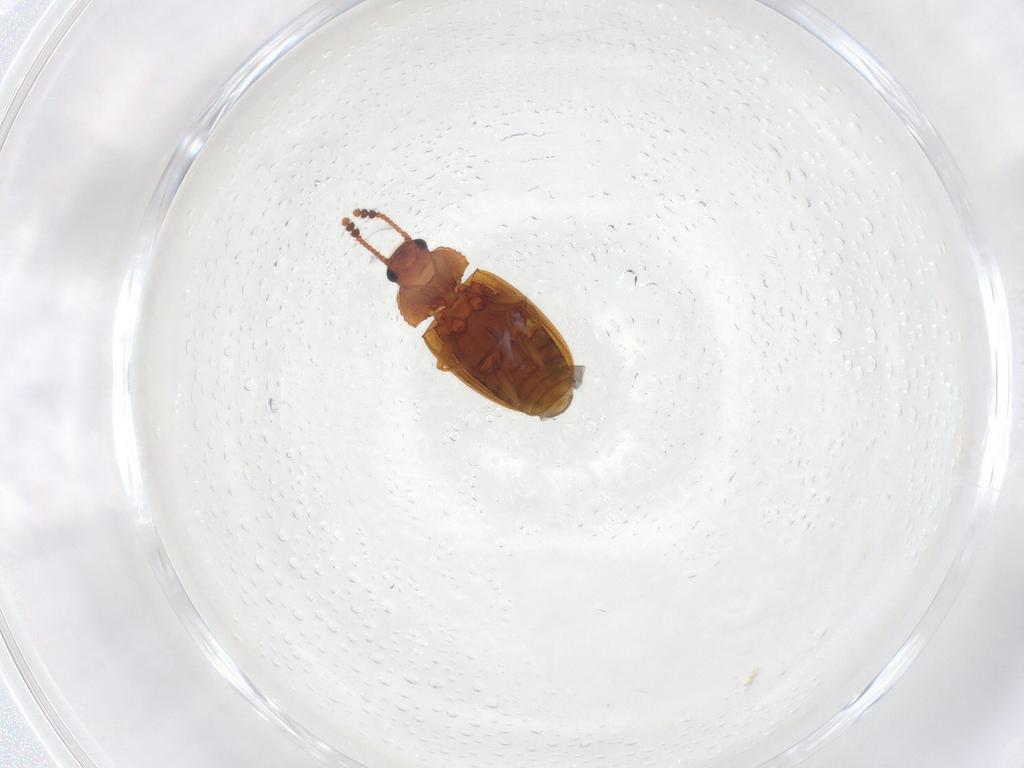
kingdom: Animalia
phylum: Arthropoda
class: Insecta
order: Coleoptera
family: Erotylidae
